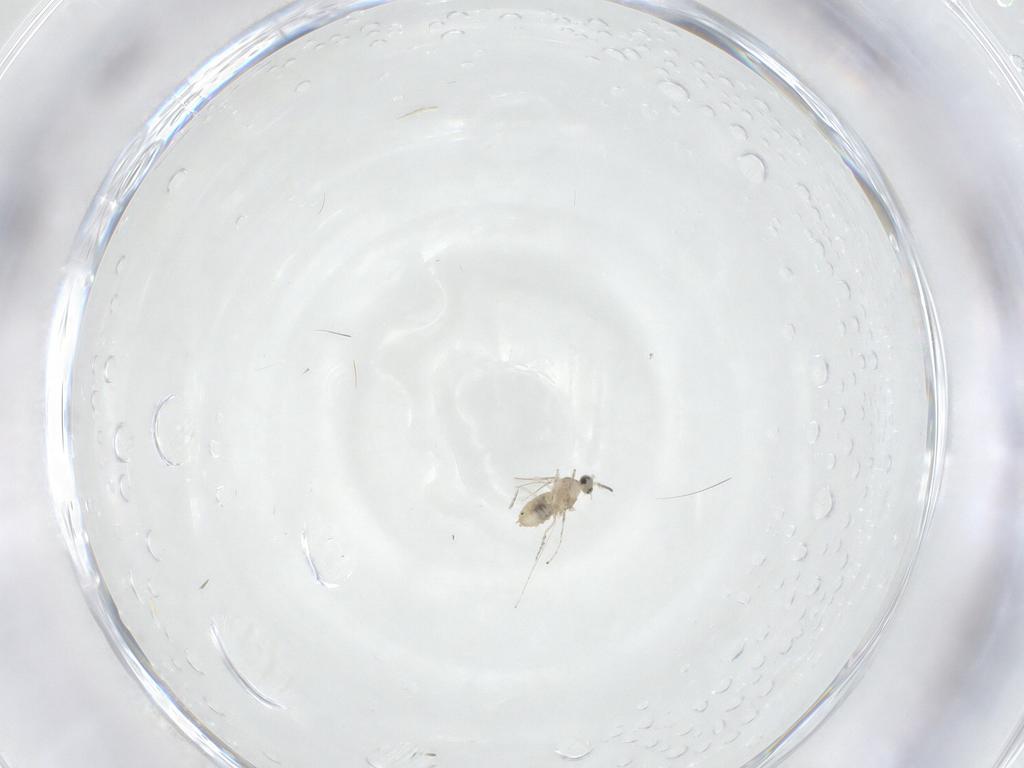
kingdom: Animalia
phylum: Arthropoda
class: Insecta
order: Diptera
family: Cecidomyiidae
